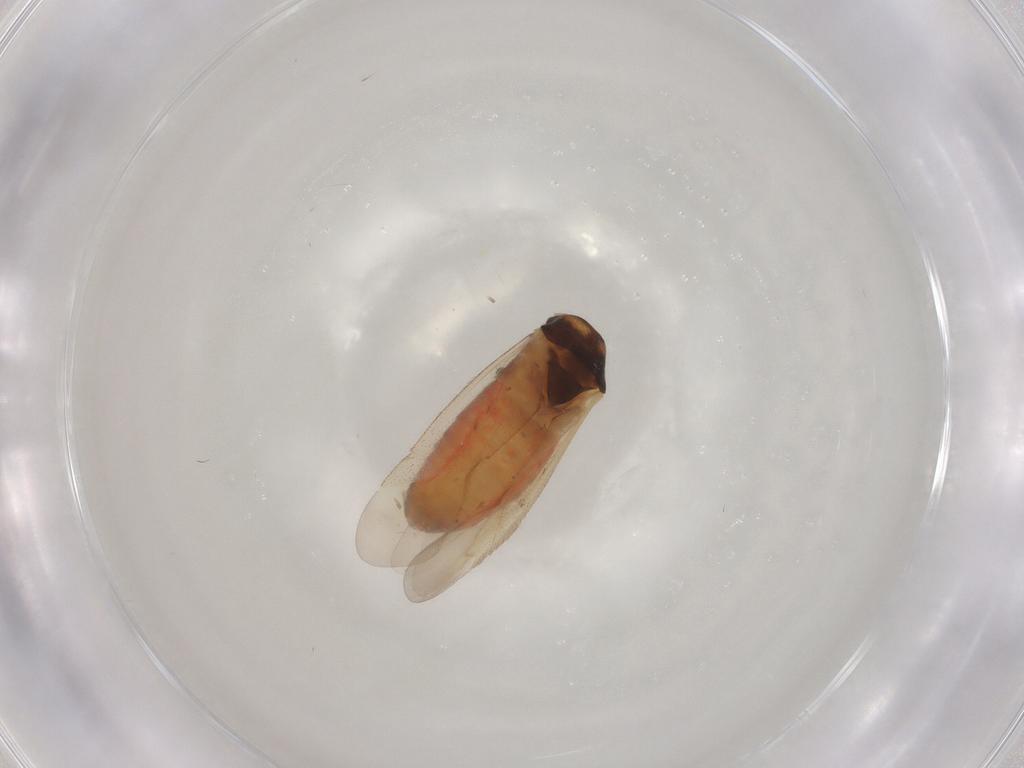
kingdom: Animalia
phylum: Arthropoda
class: Insecta
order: Hemiptera
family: Miridae
